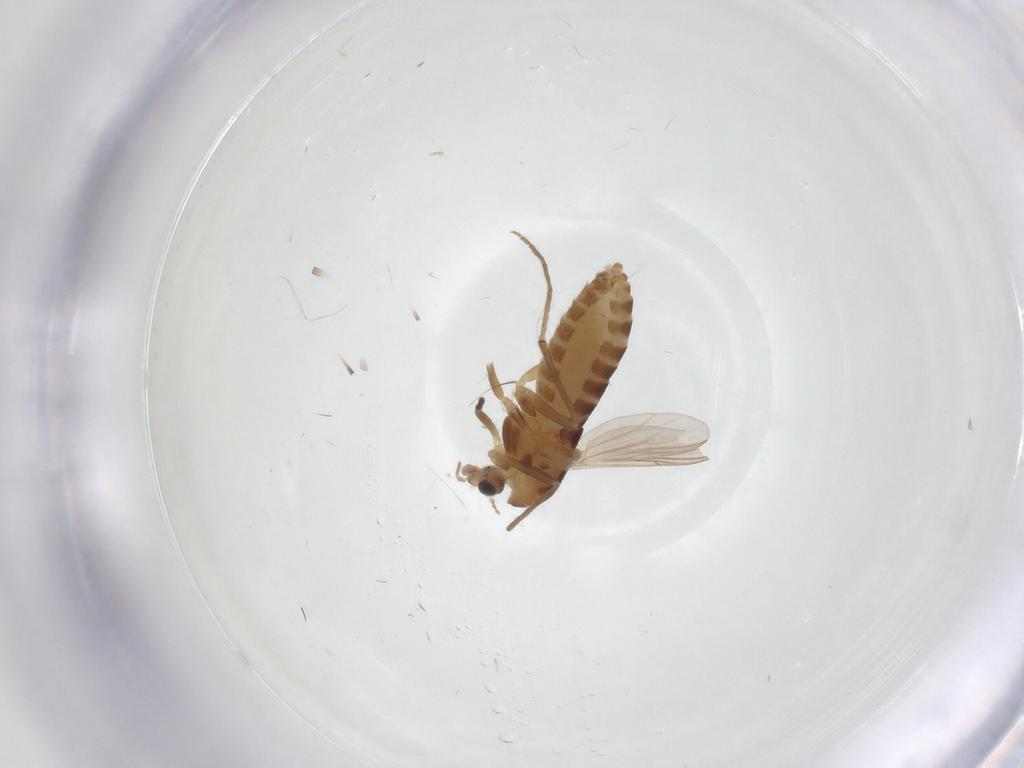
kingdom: Animalia
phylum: Arthropoda
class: Insecta
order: Diptera
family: Chironomidae
